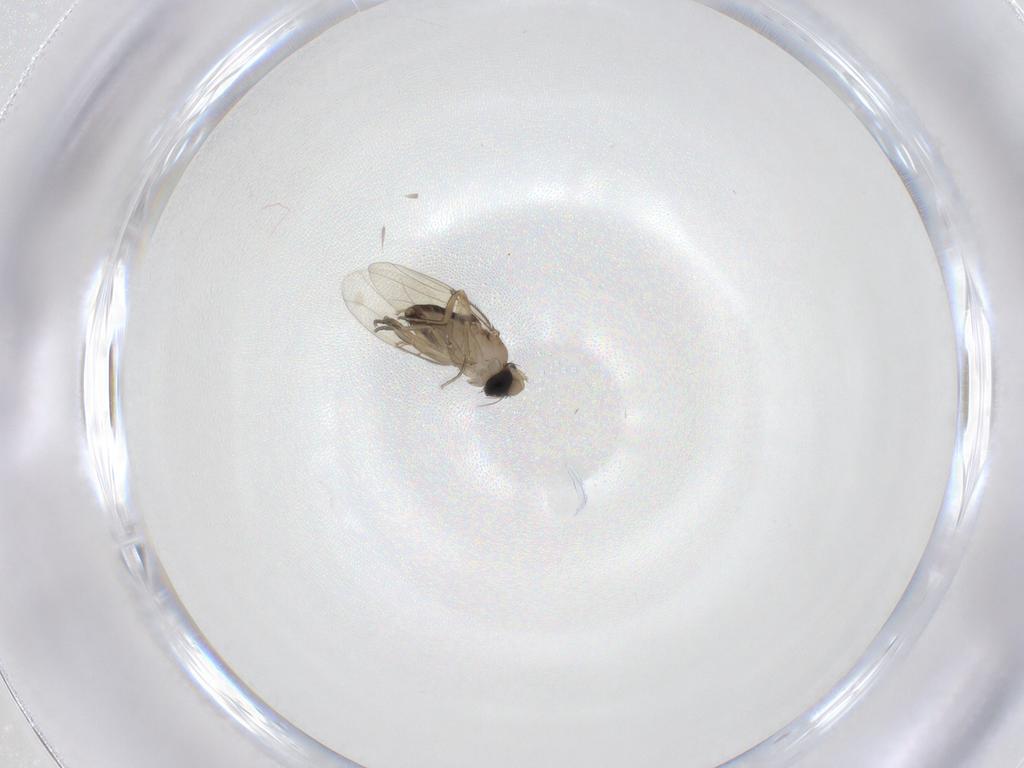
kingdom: Animalia
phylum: Arthropoda
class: Insecta
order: Diptera
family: Phoridae
